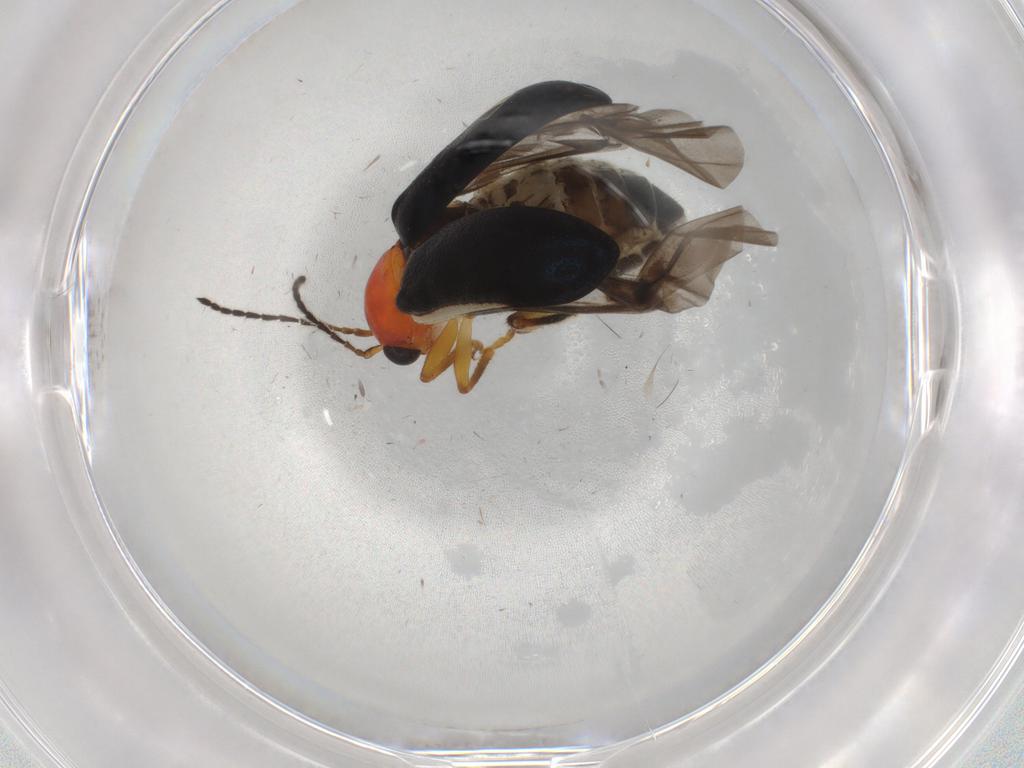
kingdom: Animalia
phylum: Arthropoda
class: Insecta
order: Coleoptera
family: Chrysomelidae
